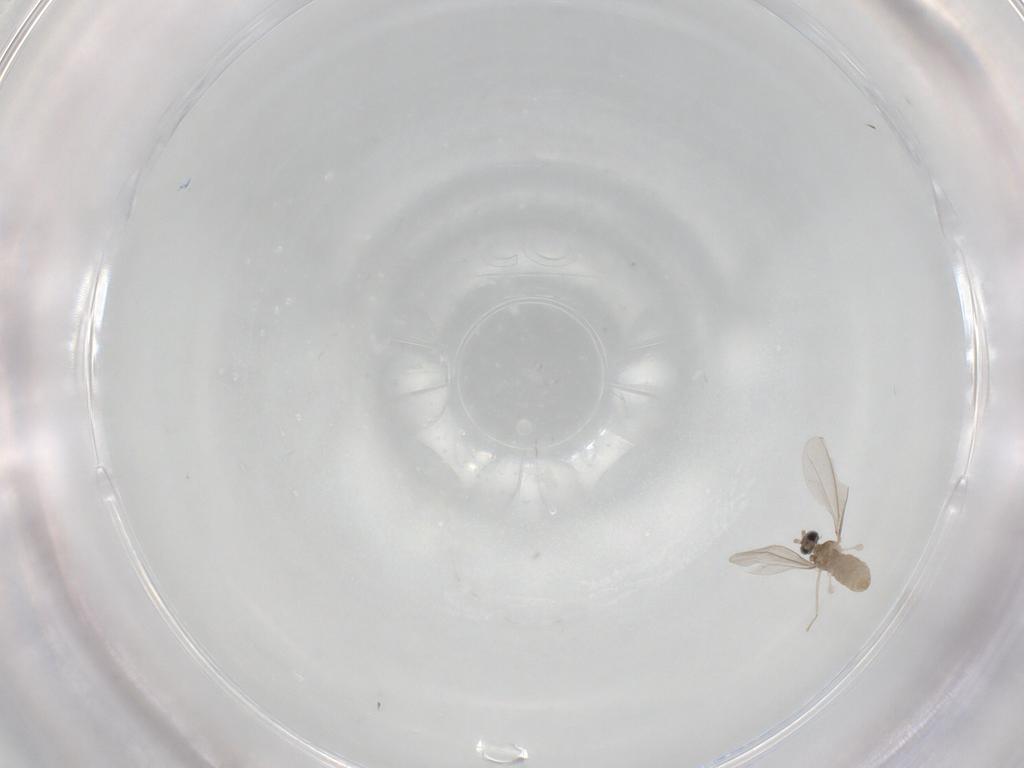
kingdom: Animalia
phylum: Arthropoda
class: Insecta
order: Diptera
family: Cecidomyiidae
